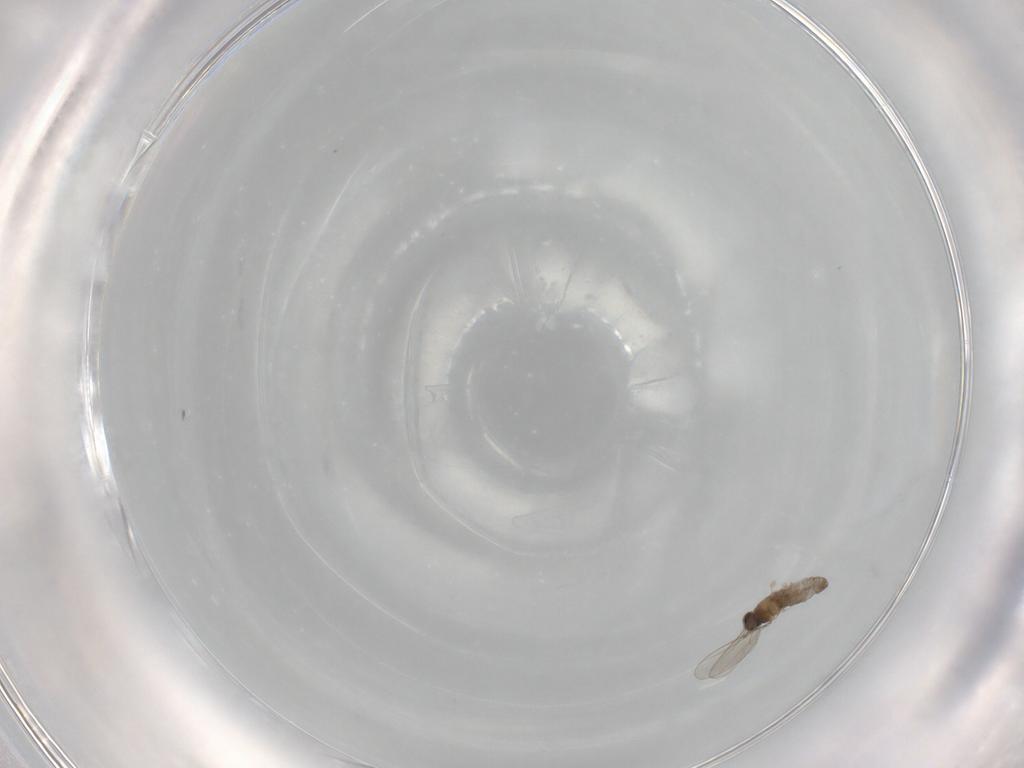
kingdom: Animalia
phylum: Arthropoda
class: Insecta
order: Diptera
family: Cecidomyiidae
